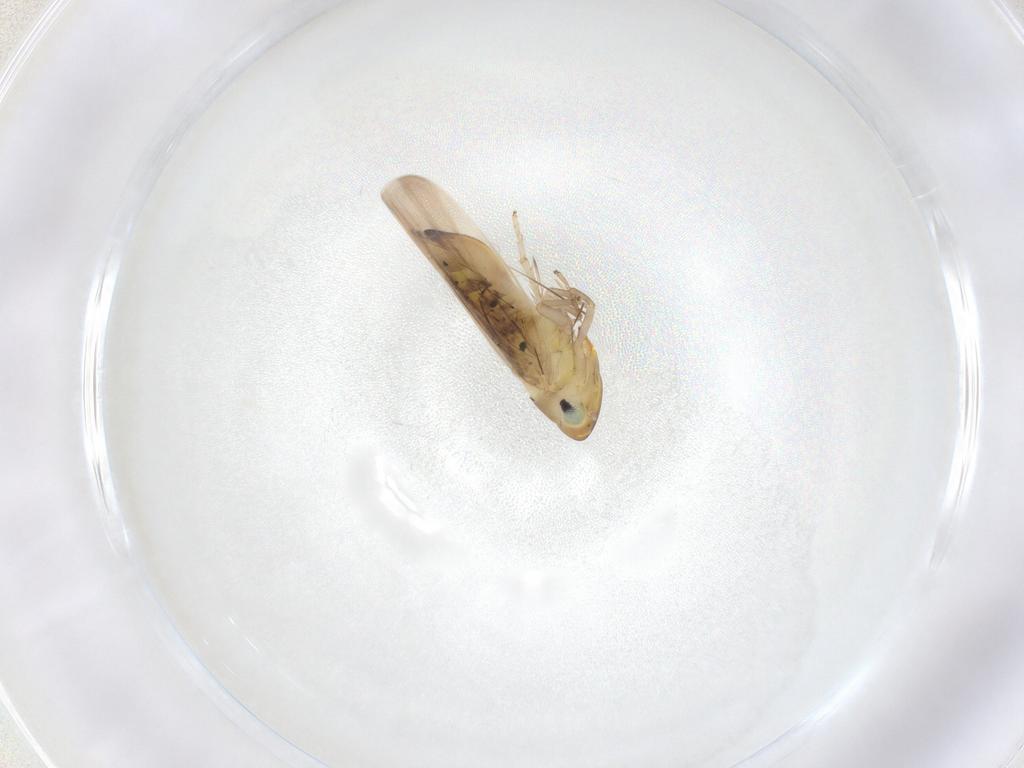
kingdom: Animalia
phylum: Arthropoda
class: Insecta
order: Hemiptera
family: Cicadellidae
